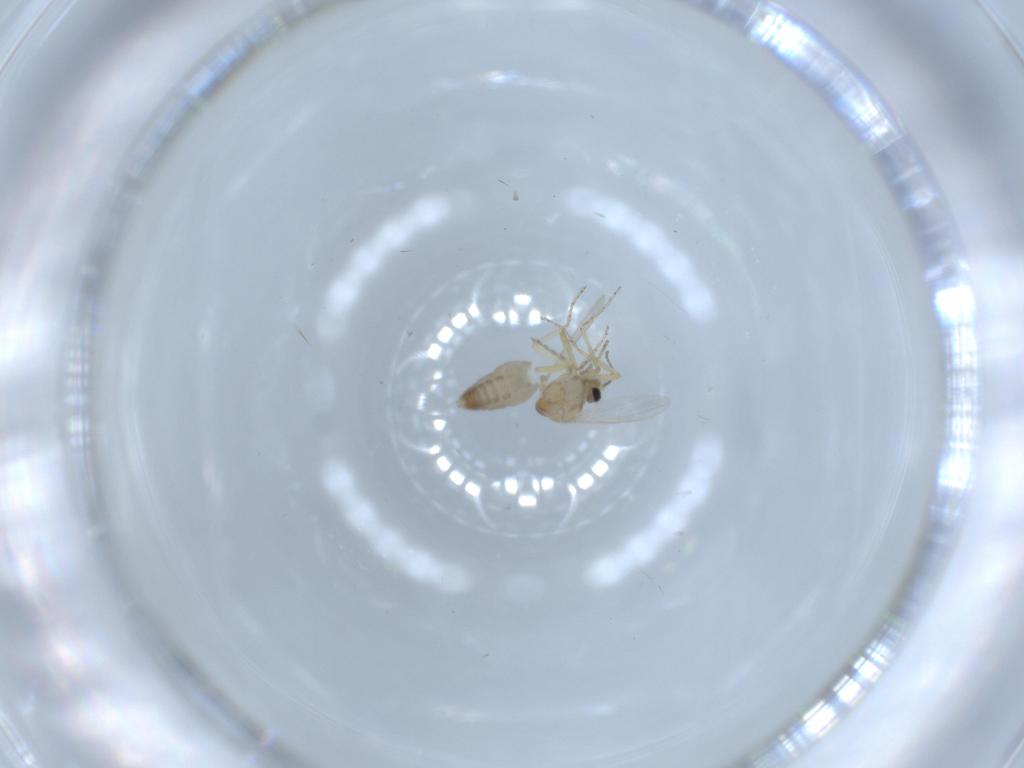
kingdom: Animalia
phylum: Arthropoda
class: Insecta
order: Diptera
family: Ceratopogonidae
